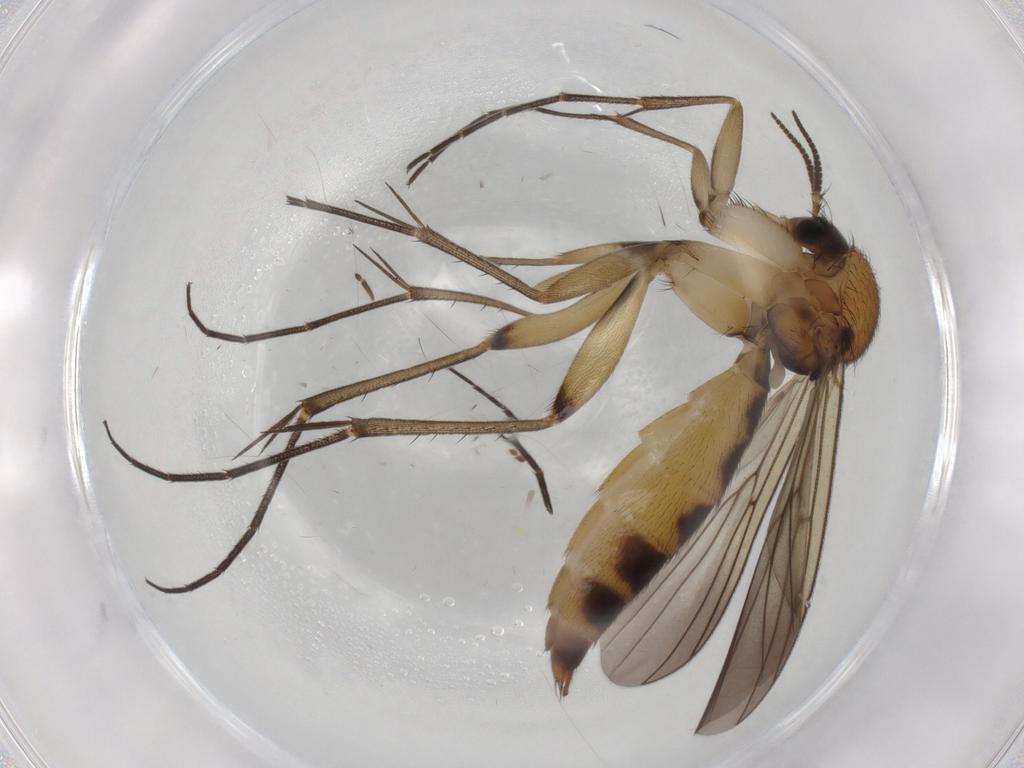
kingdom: Animalia
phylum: Arthropoda
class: Insecta
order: Diptera
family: Mycetophilidae
